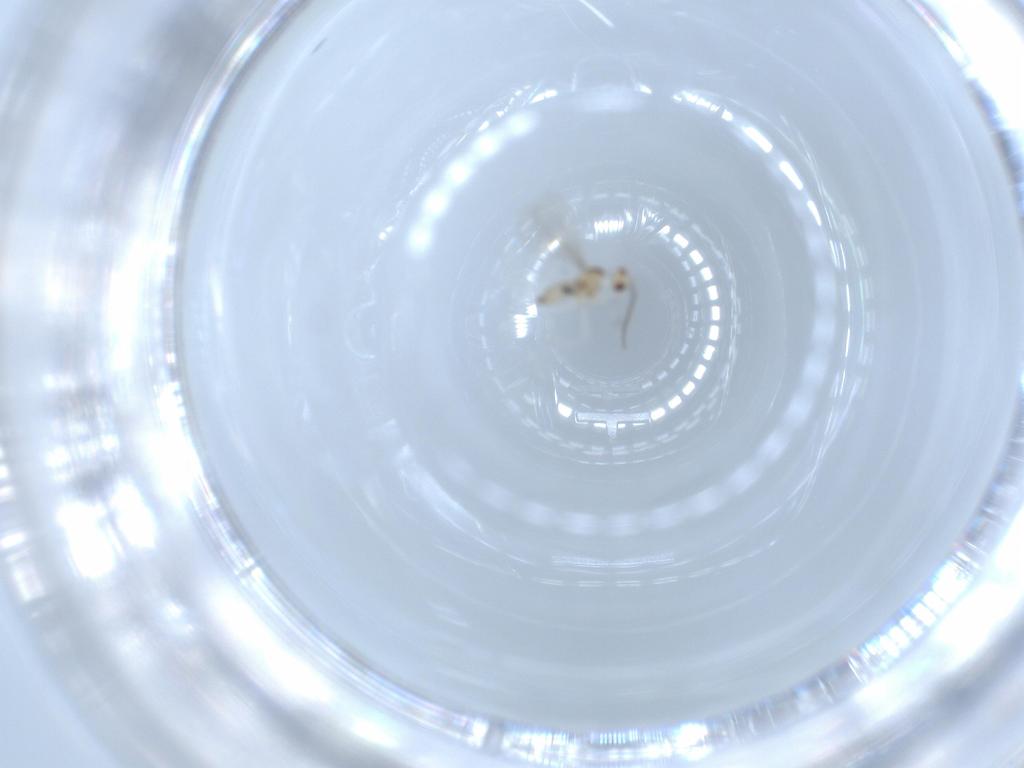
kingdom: Animalia
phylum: Arthropoda
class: Insecta
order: Diptera
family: Cecidomyiidae
